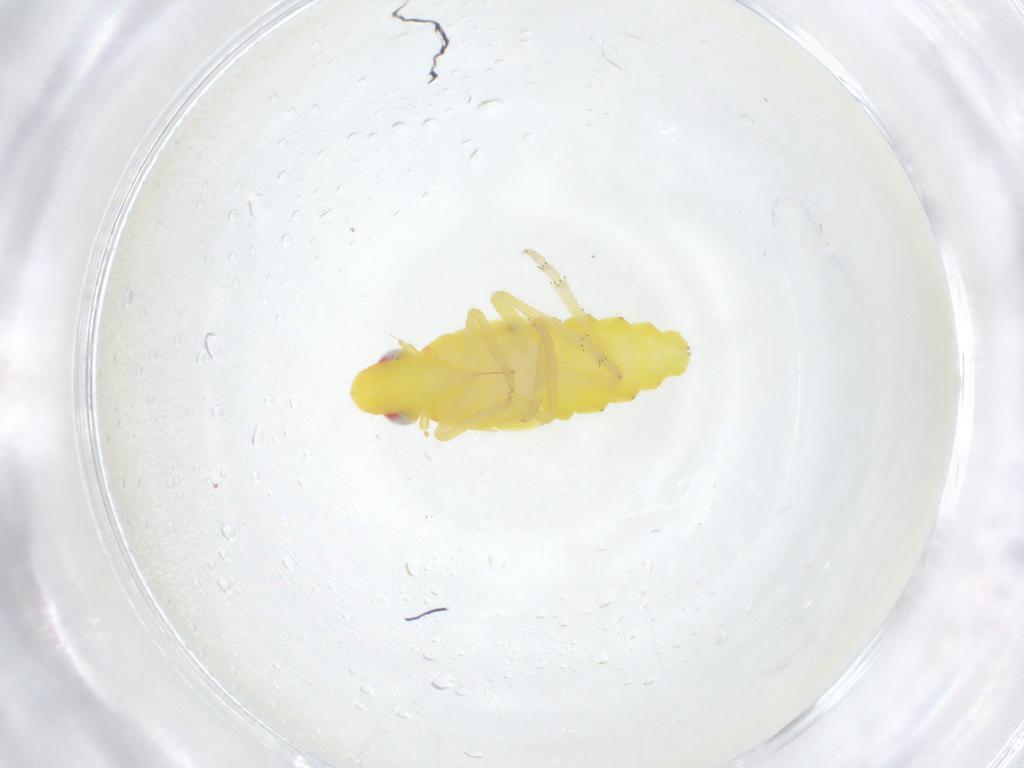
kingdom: Animalia
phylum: Arthropoda
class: Insecta
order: Hemiptera
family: Tropiduchidae
